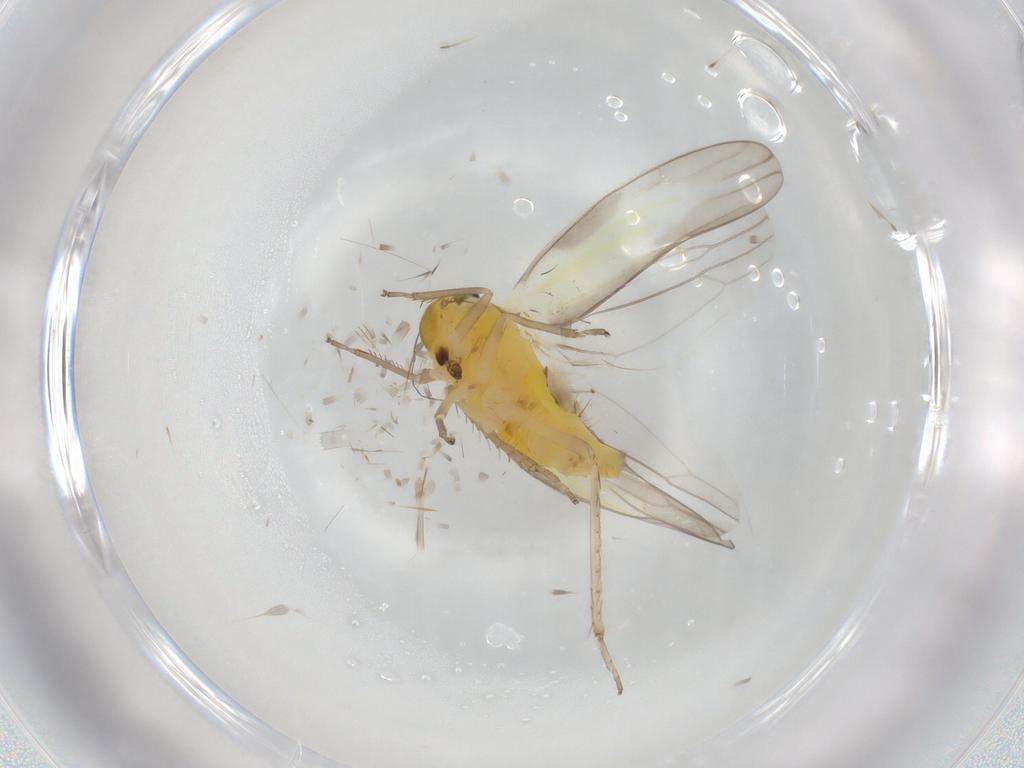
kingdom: Animalia
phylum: Arthropoda
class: Insecta
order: Hemiptera
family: Cicadellidae
